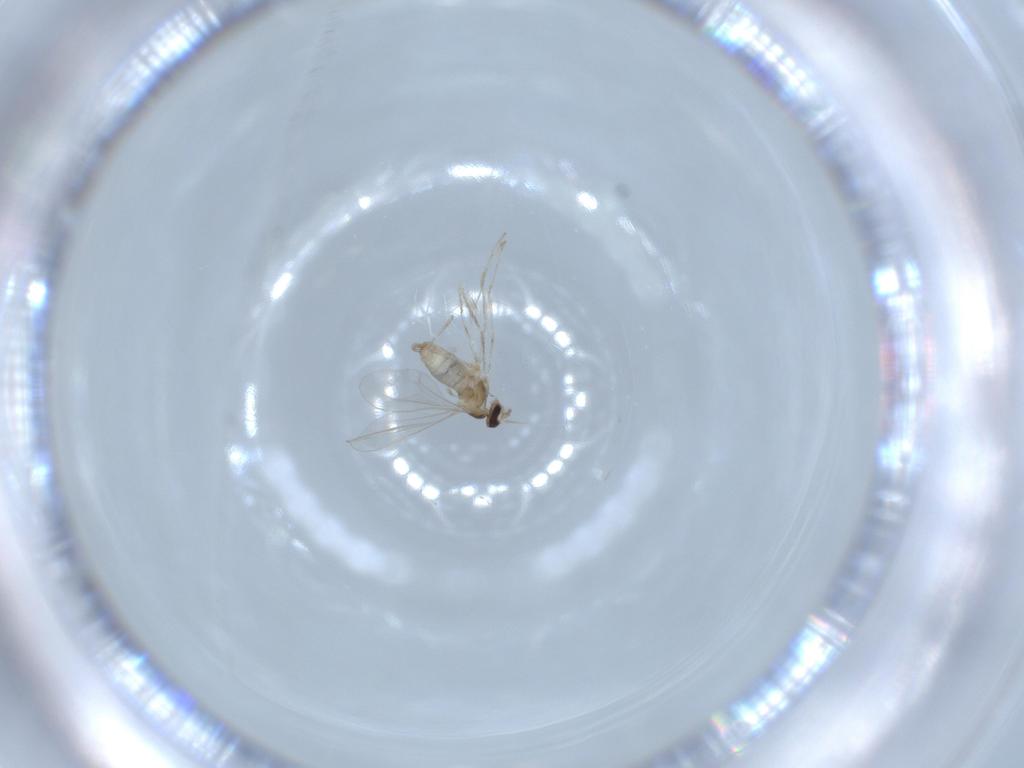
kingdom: Animalia
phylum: Arthropoda
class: Insecta
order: Diptera
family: Cecidomyiidae
